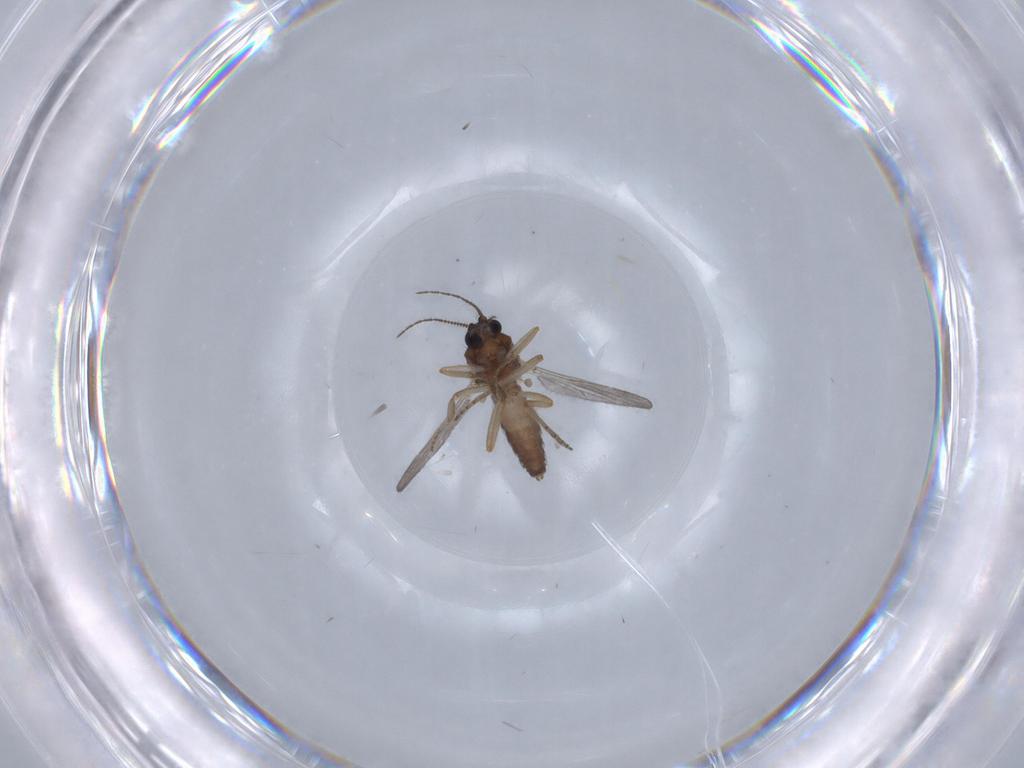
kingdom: Animalia
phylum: Arthropoda
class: Insecta
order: Diptera
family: Ceratopogonidae
